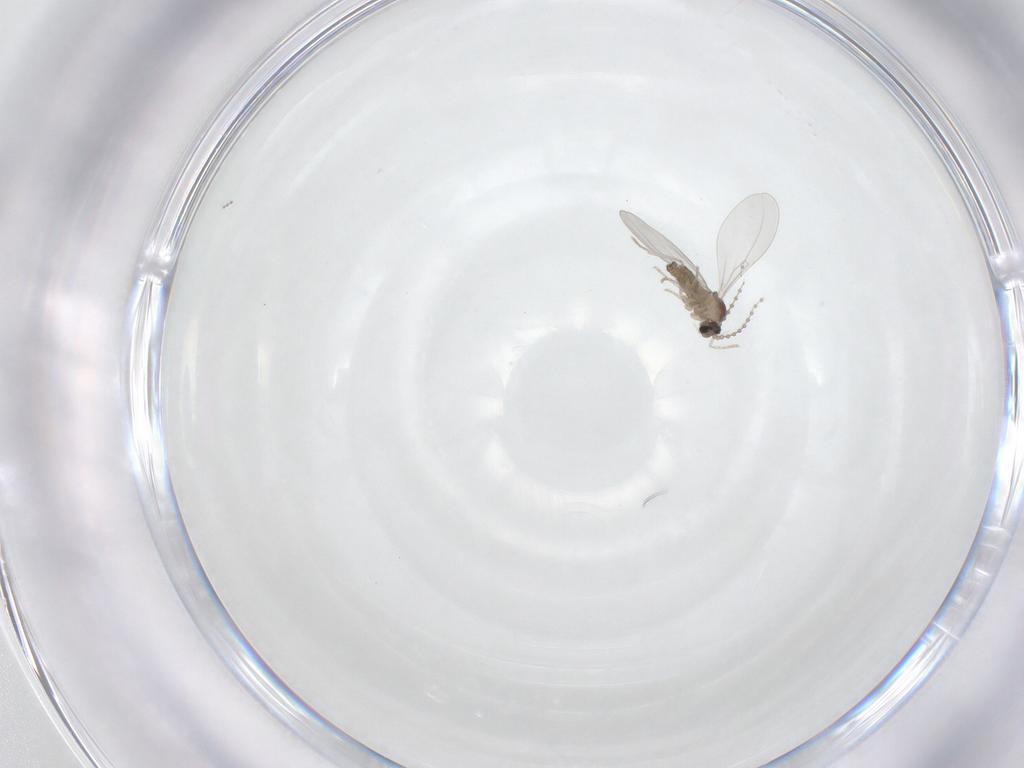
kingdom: Animalia
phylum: Arthropoda
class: Insecta
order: Diptera
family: Cecidomyiidae
